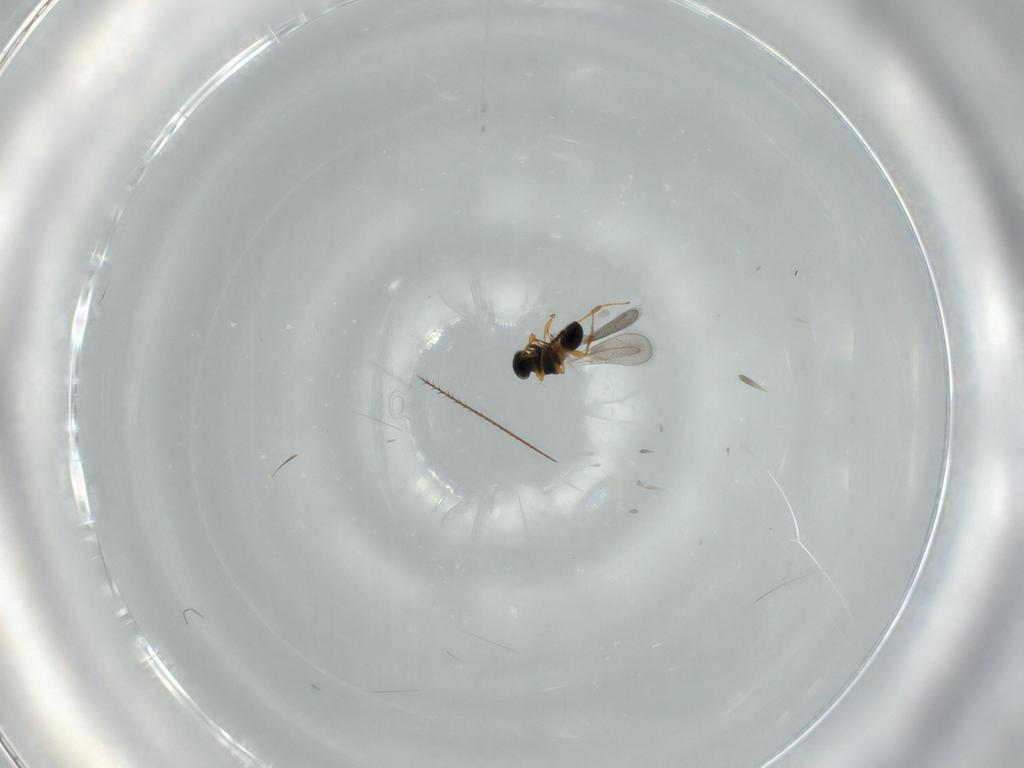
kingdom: Animalia
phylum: Arthropoda
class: Insecta
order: Hymenoptera
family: Platygastridae
